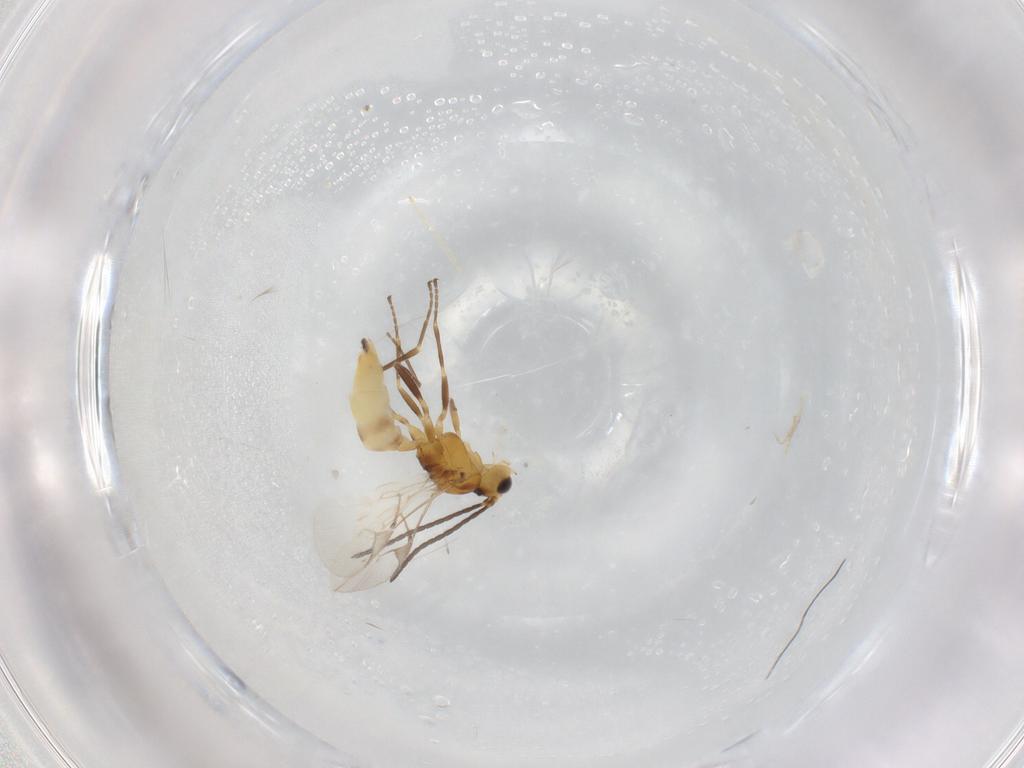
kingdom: Animalia
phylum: Arthropoda
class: Insecta
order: Hymenoptera
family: Braconidae
